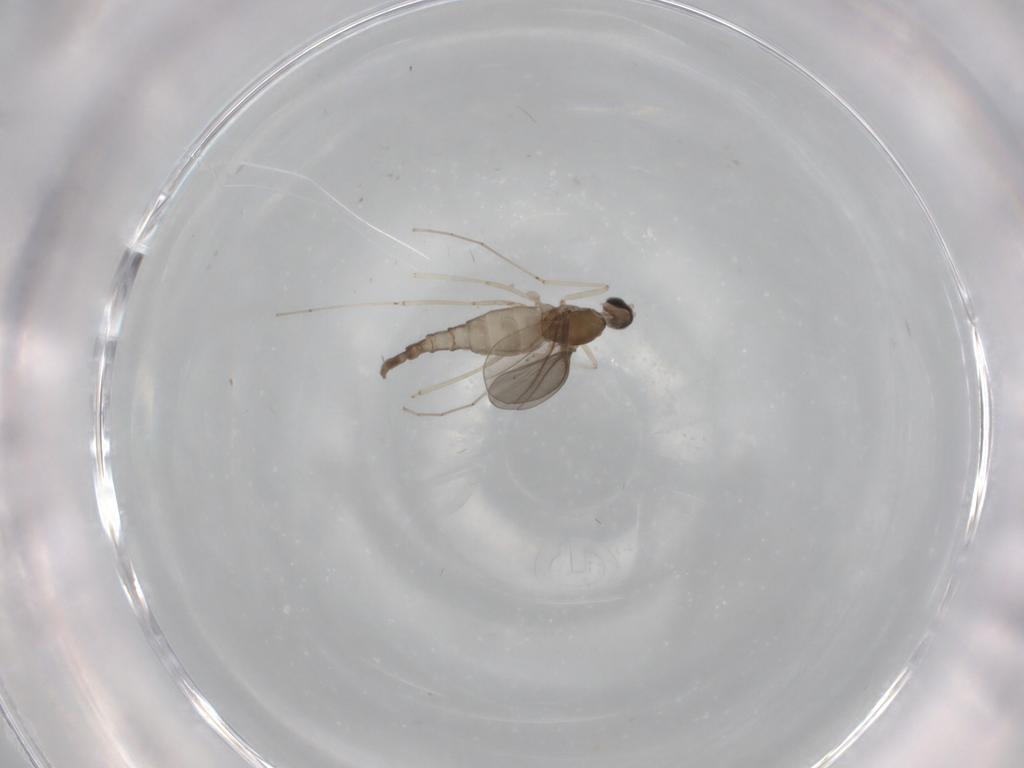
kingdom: Animalia
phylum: Arthropoda
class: Insecta
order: Diptera
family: Cecidomyiidae
